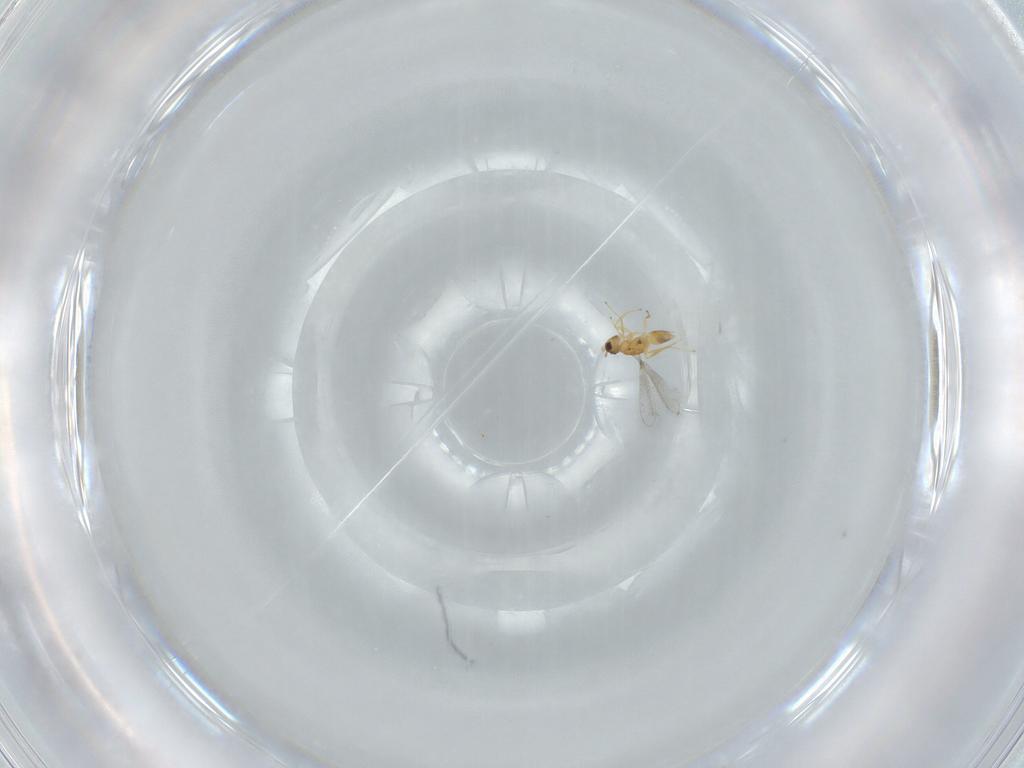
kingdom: Animalia
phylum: Arthropoda
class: Insecta
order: Hymenoptera
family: Mymaridae
